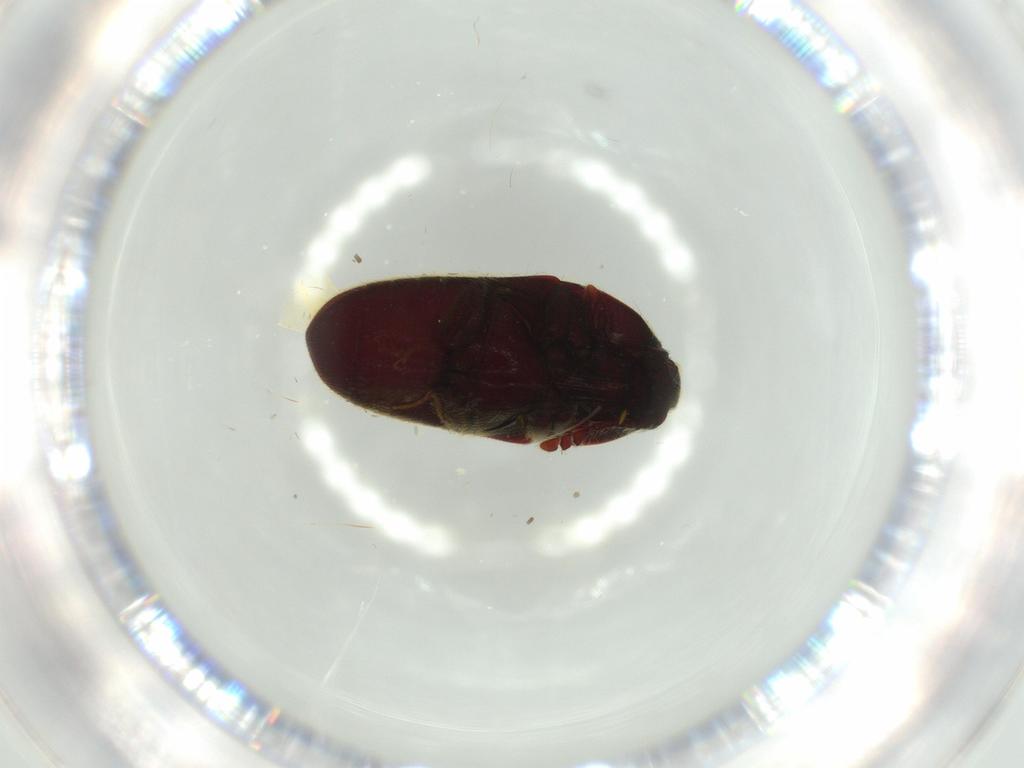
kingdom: Animalia
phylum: Arthropoda
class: Insecta
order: Coleoptera
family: Throscidae
